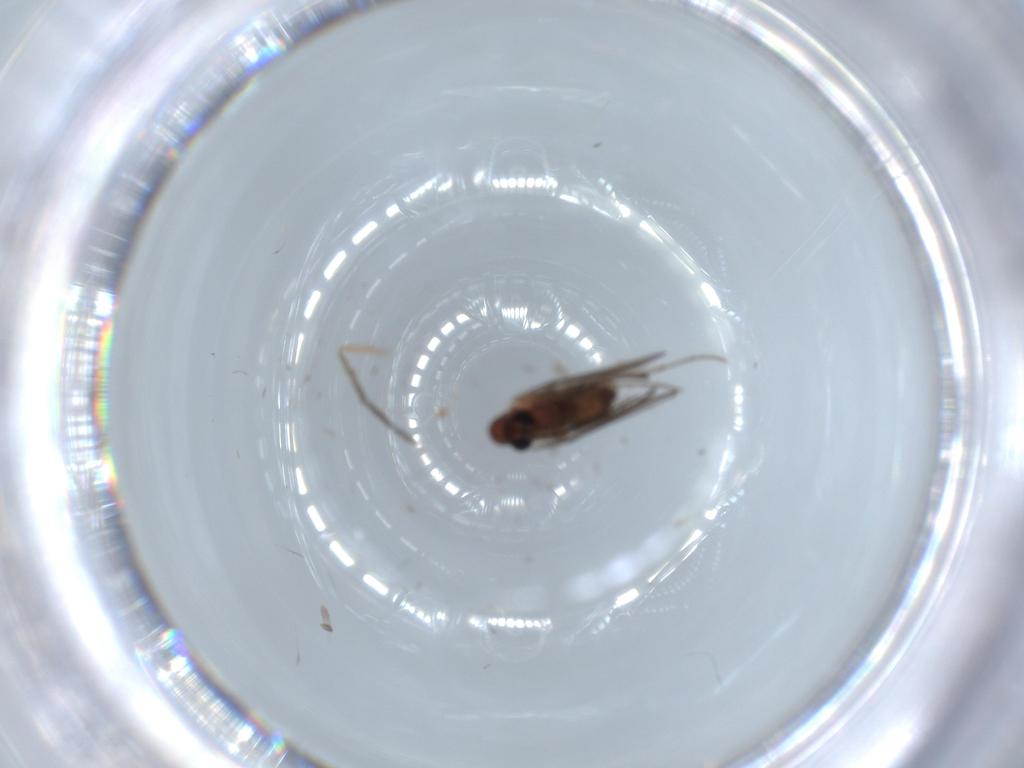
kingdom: Animalia
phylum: Arthropoda
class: Insecta
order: Diptera
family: Psychodidae
